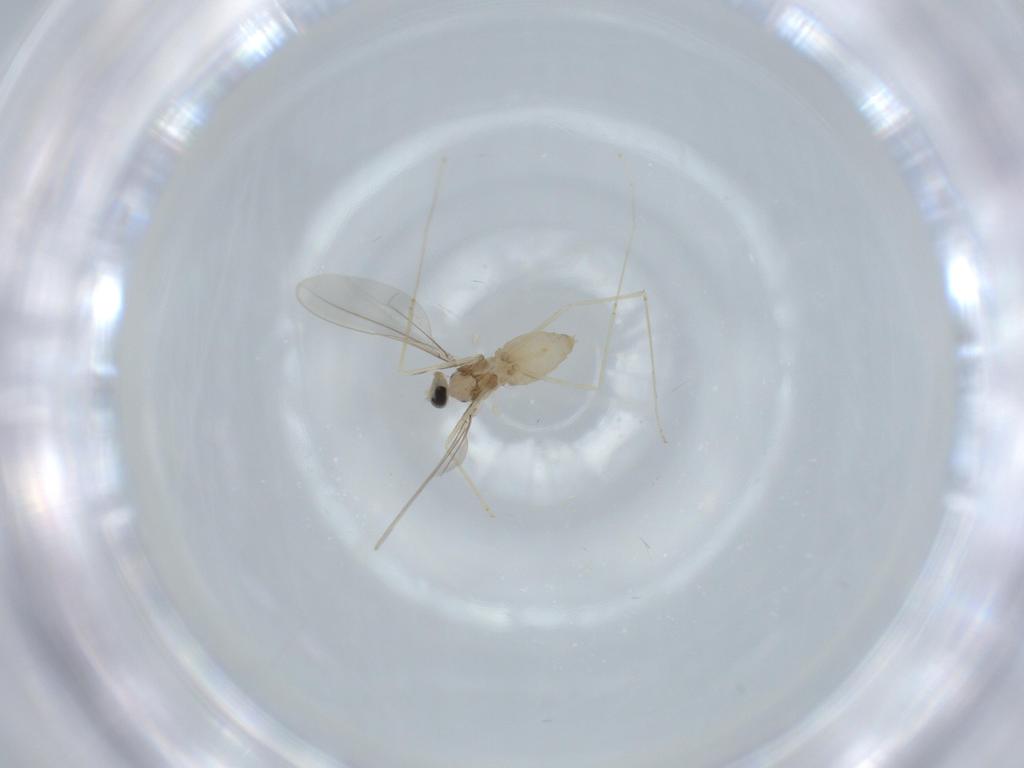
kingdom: Animalia
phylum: Arthropoda
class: Insecta
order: Diptera
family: Cecidomyiidae
